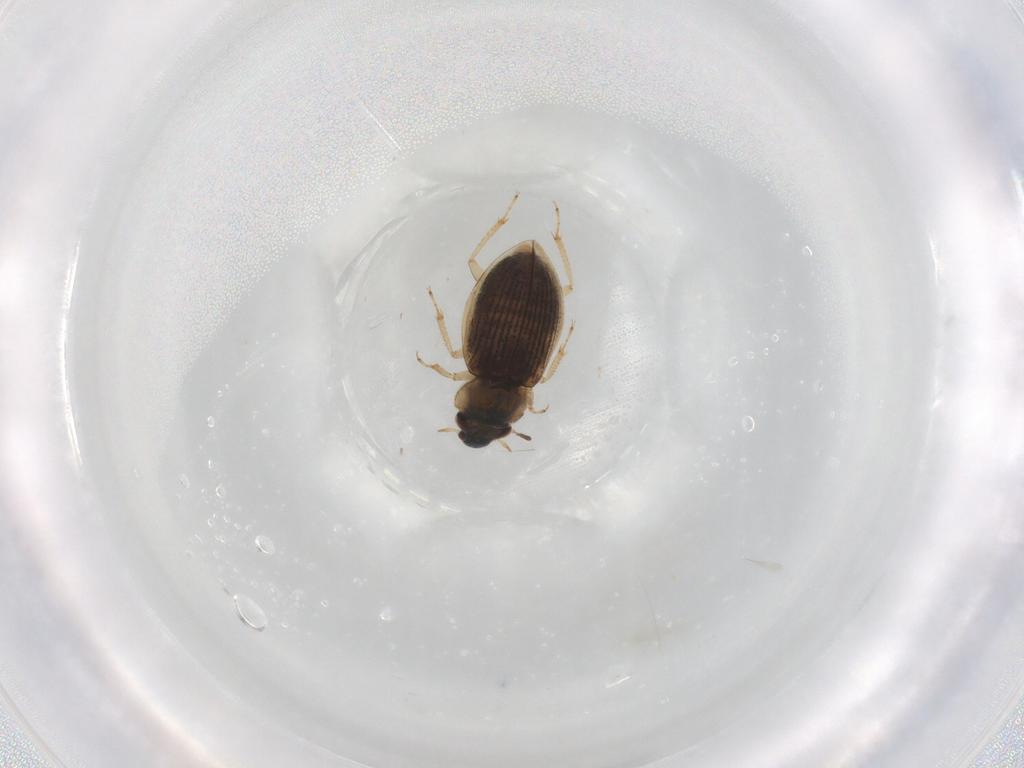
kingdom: Animalia
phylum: Arthropoda
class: Insecta
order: Coleoptera
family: Hydraenidae
